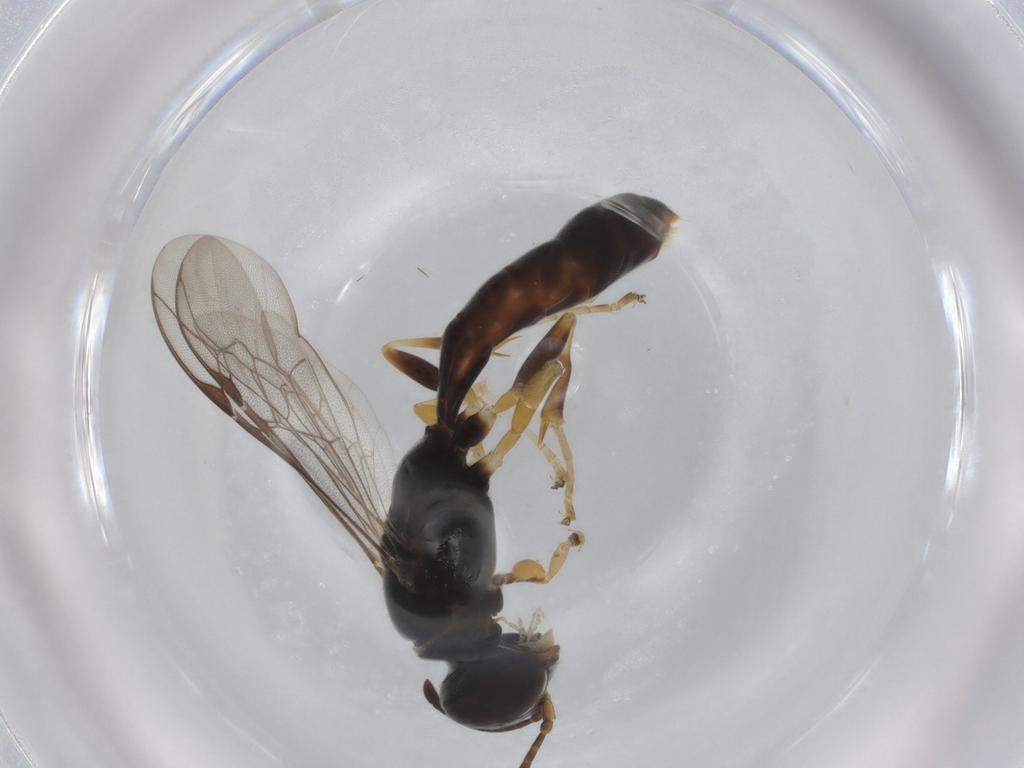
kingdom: Animalia
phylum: Arthropoda
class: Insecta
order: Hymenoptera
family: Crabronidae
